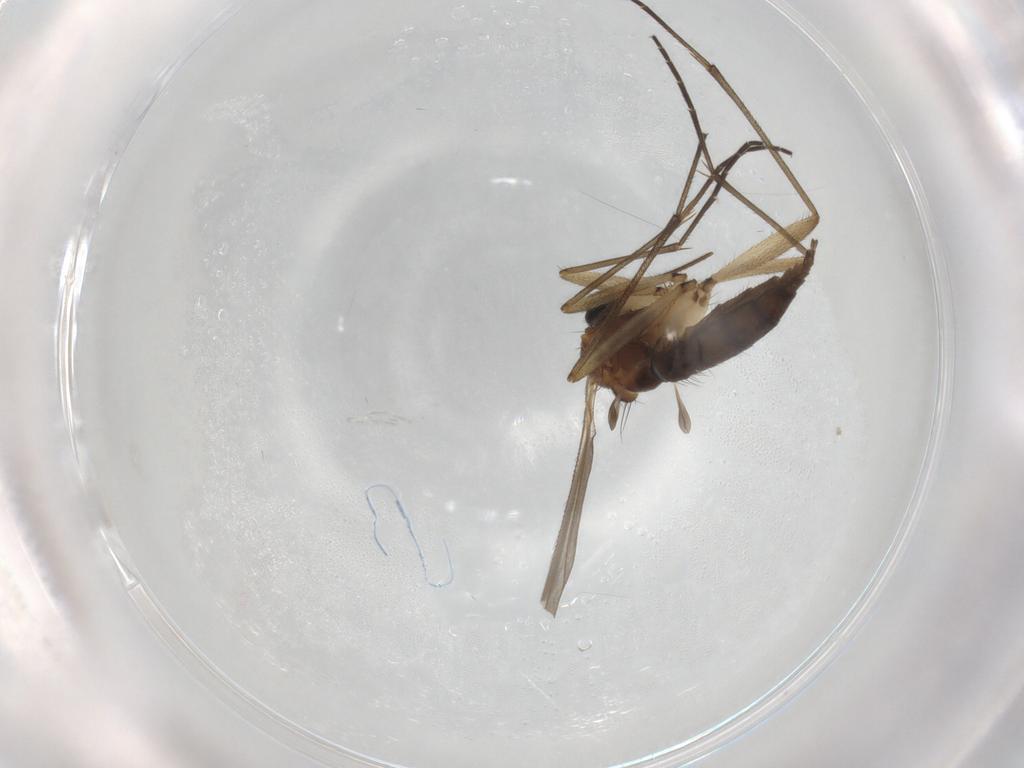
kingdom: Animalia
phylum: Arthropoda
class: Insecta
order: Diptera
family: Sciaridae
